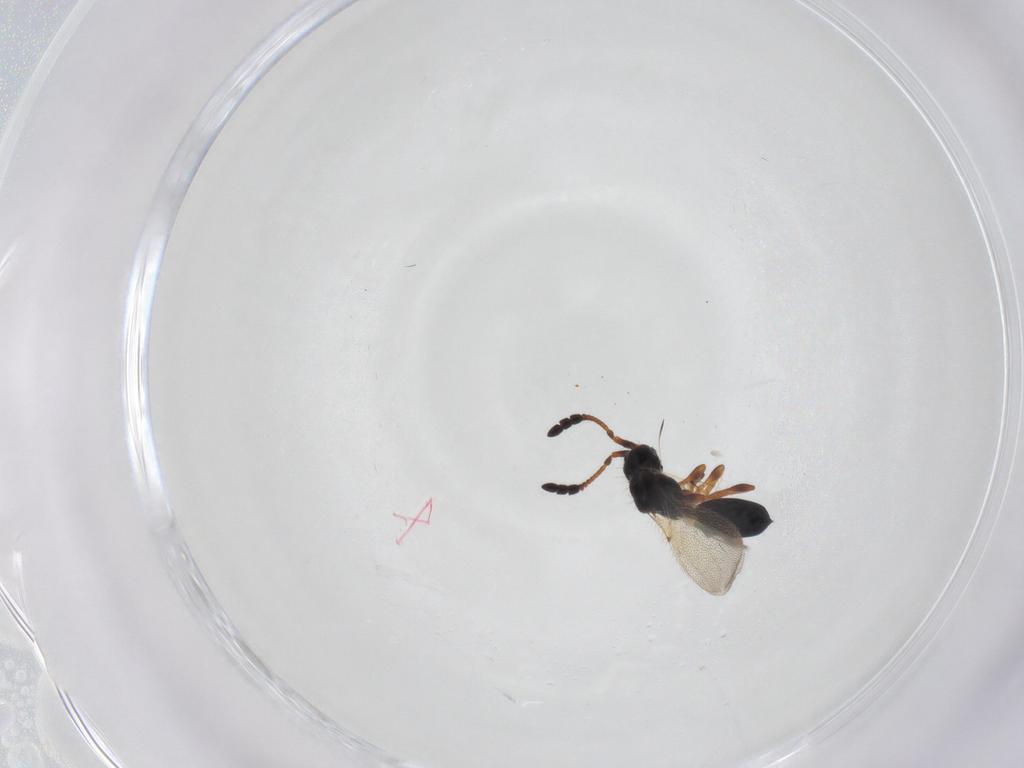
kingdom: Animalia
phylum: Arthropoda
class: Insecta
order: Hymenoptera
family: Diapriidae
